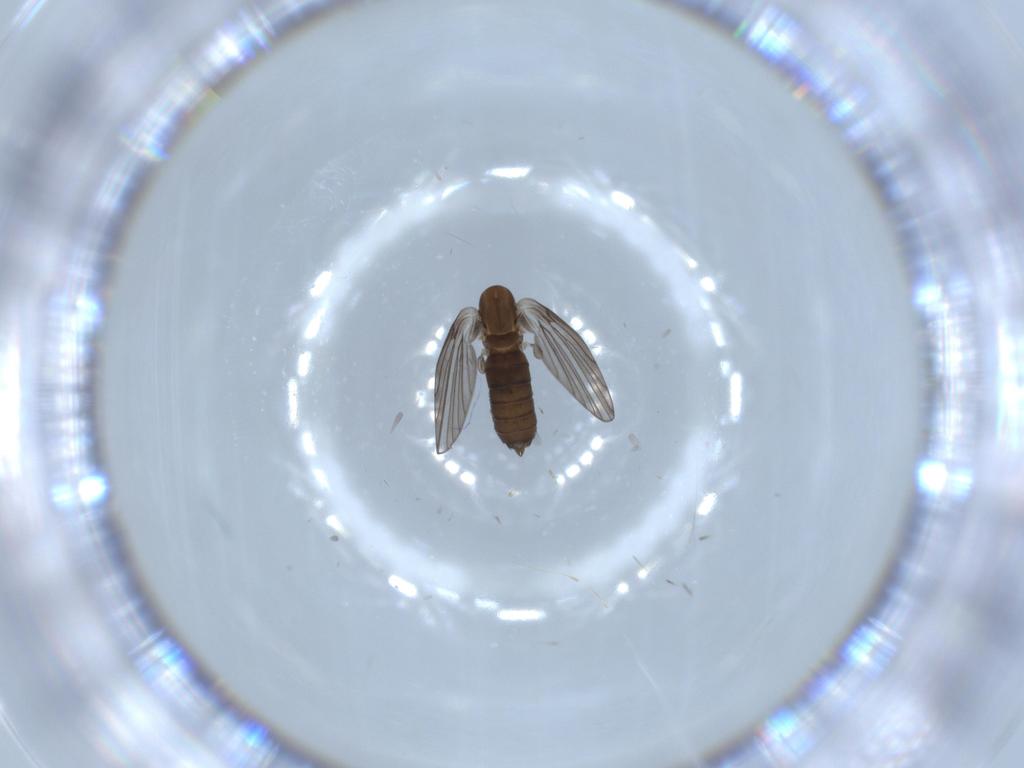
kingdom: Animalia
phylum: Arthropoda
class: Insecta
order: Diptera
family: Psychodidae
